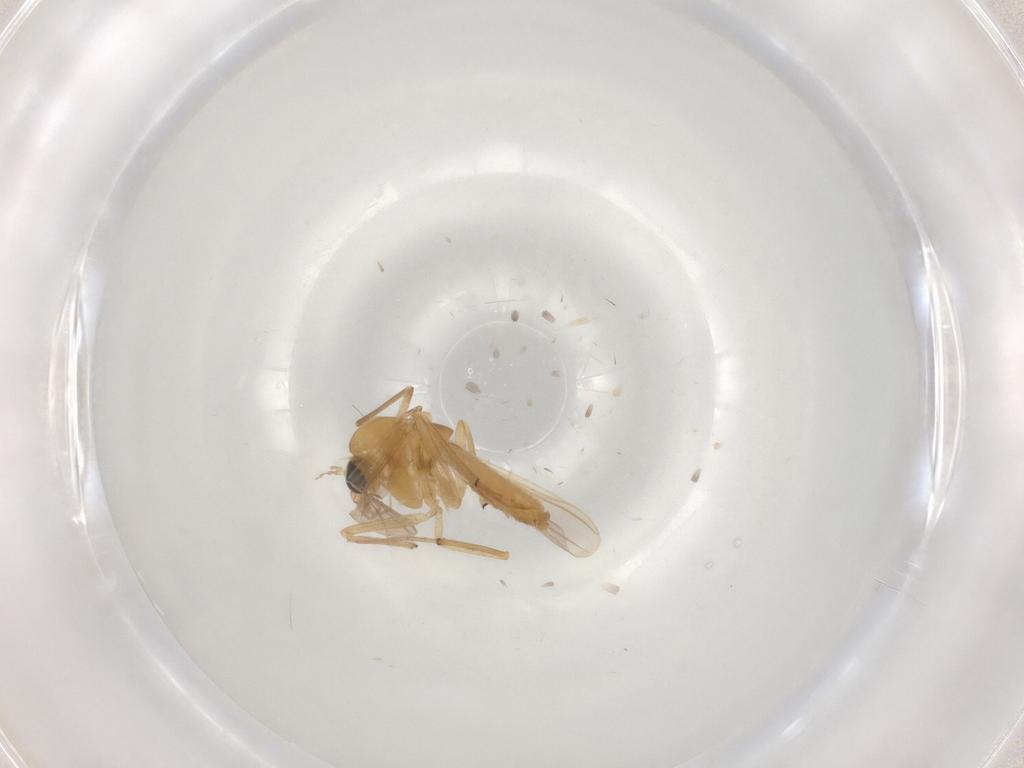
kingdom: Animalia
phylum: Arthropoda
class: Insecta
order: Diptera
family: Chironomidae
